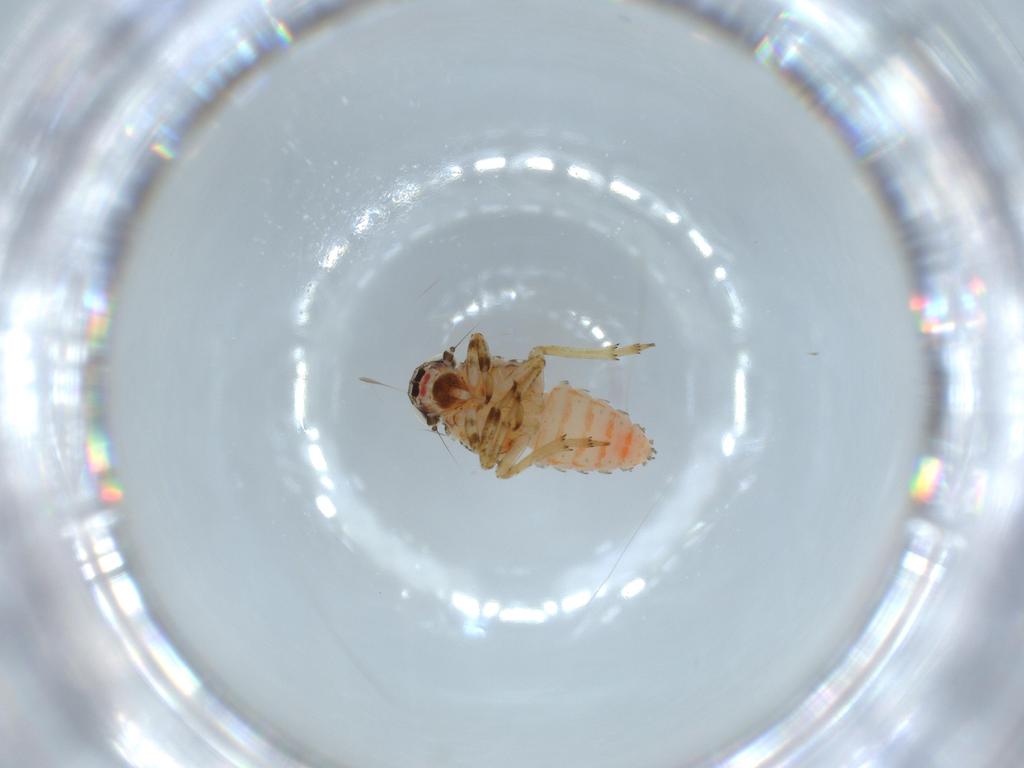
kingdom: Animalia
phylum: Arthropoda
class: Insecta
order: Hemiptera
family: Issidae
